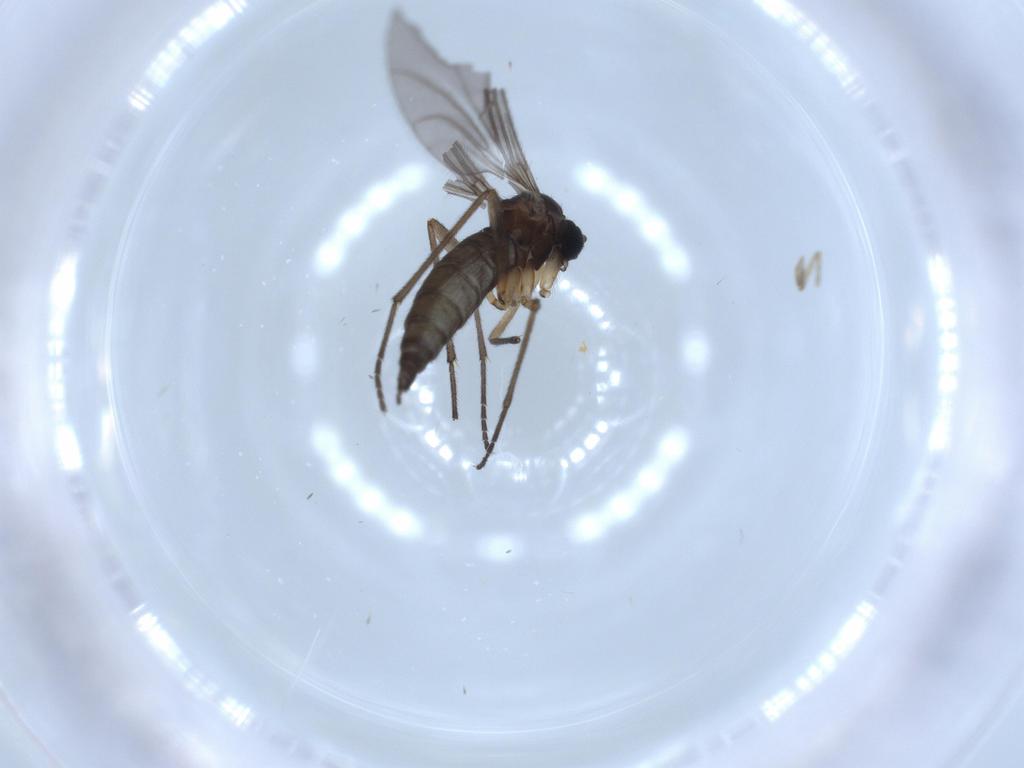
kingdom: Animalia
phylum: Arthropoda
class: Insecta
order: Diptera
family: Sciaridae
